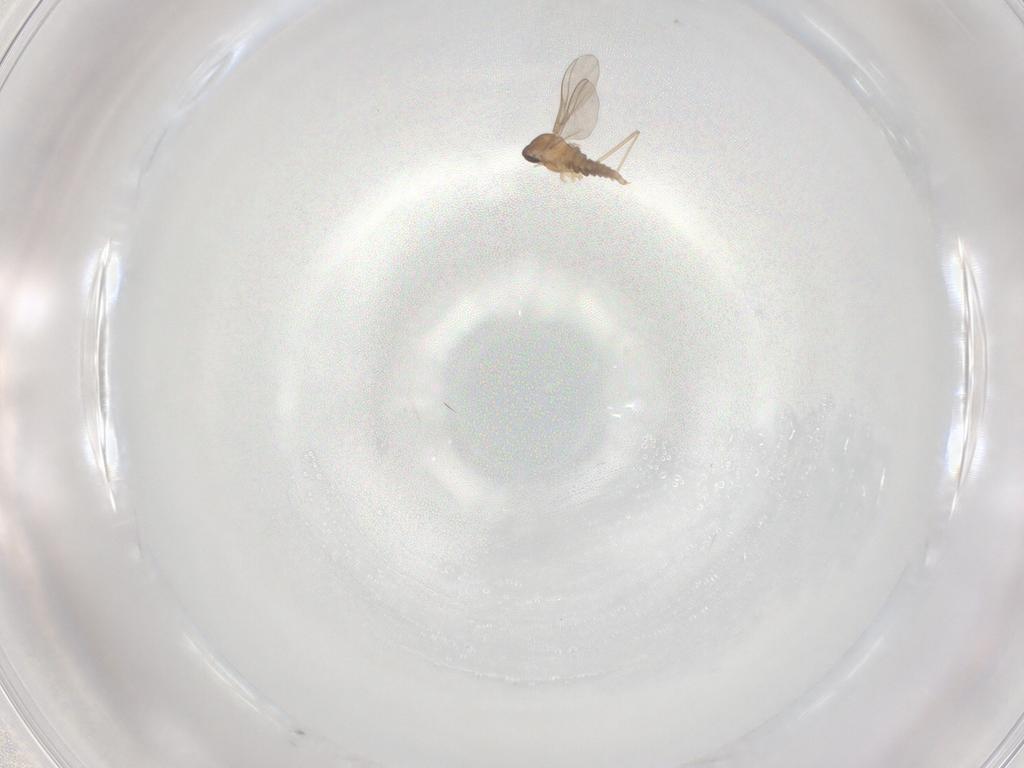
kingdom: Animalia
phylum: Arthropoda
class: Insecta
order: Diptera
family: Cecidomyiidae
